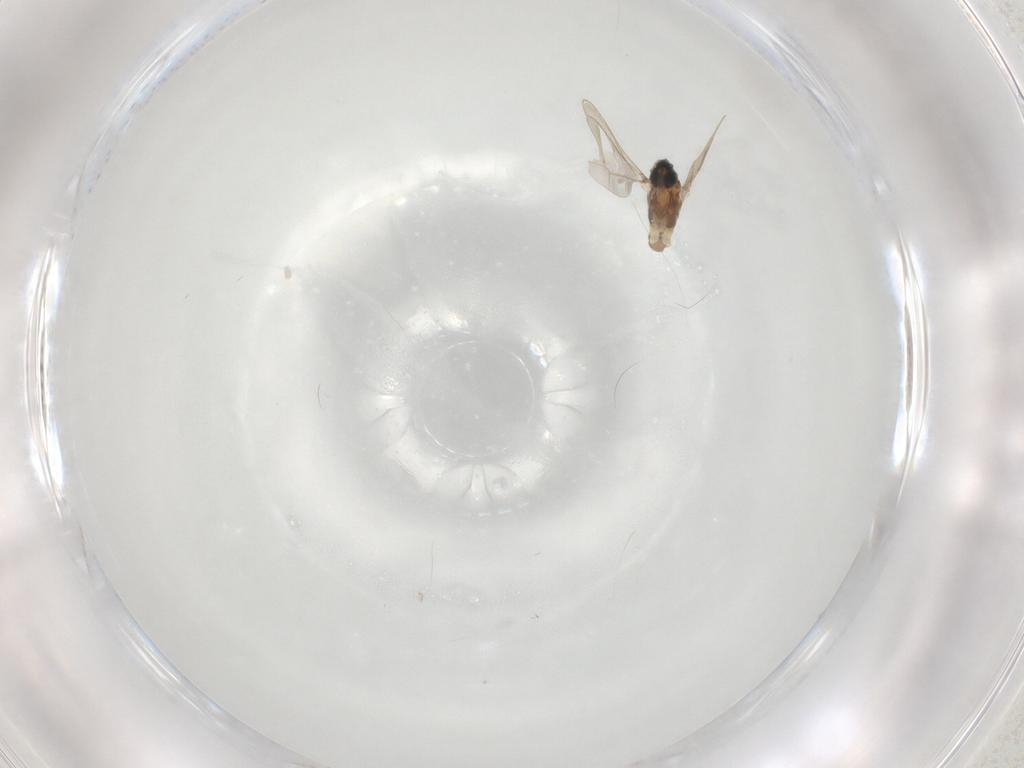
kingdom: Animalia
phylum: Arthropoda
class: Insecta
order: Diptera
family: Cecidomyiidae
